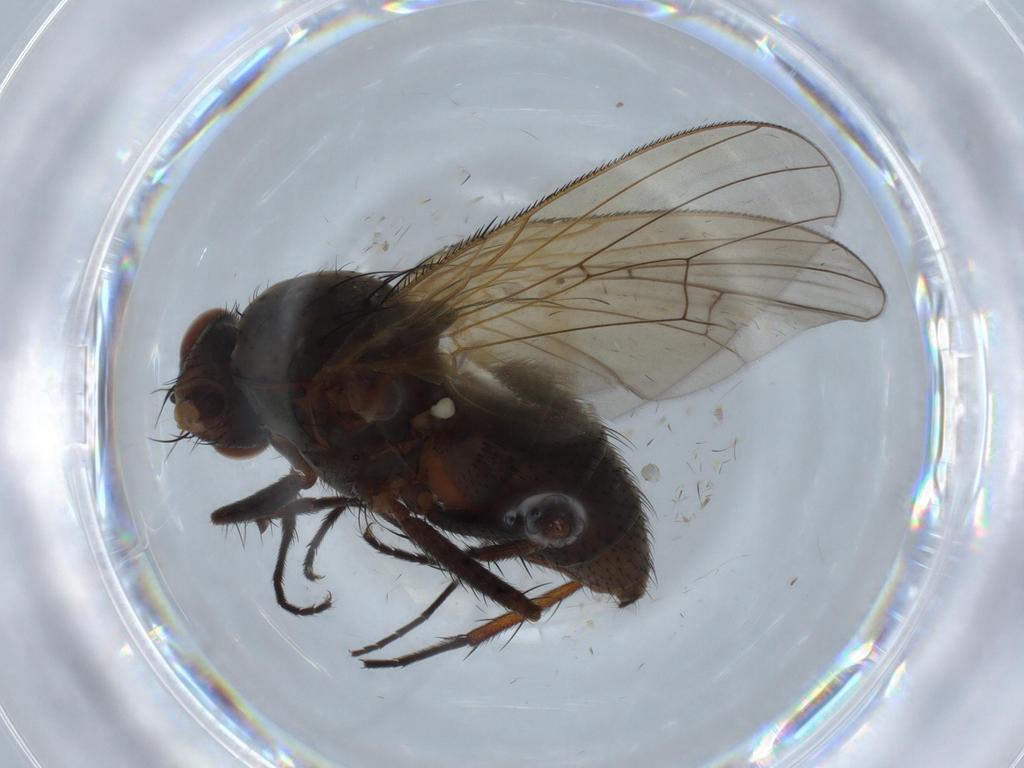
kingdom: Animalia
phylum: Arthropoda
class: Insecta
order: Diptera
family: Anthomyiidae
